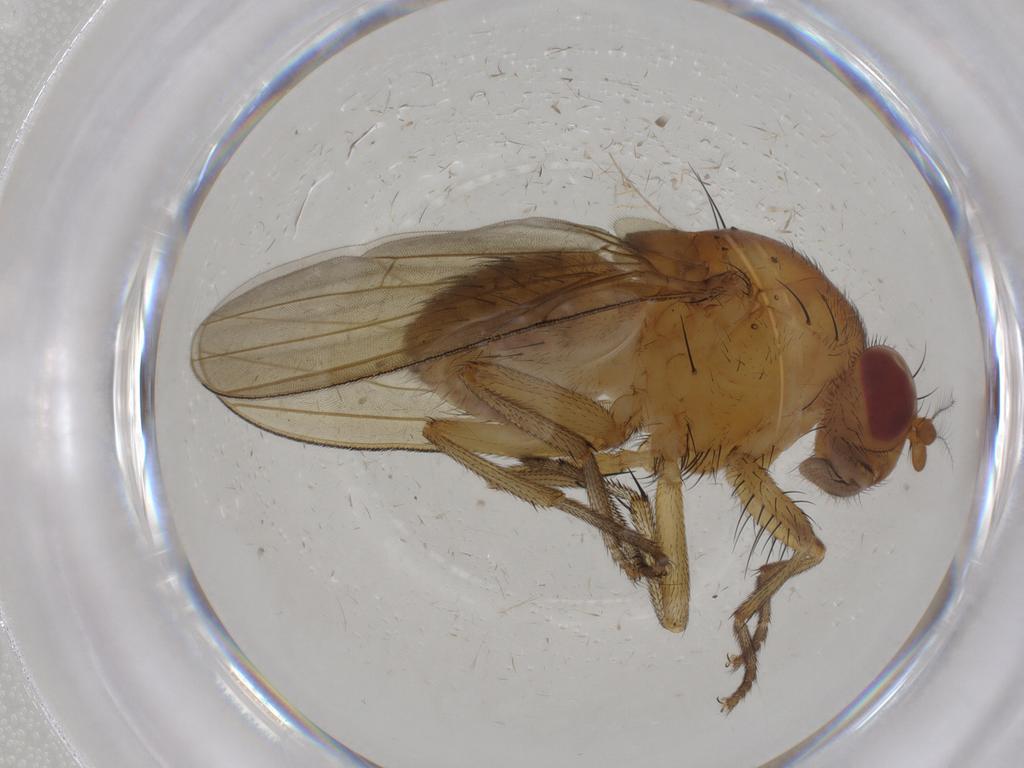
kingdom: Animalia
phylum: Arthropoda
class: Insecta
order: Diptera
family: Chironomidae
